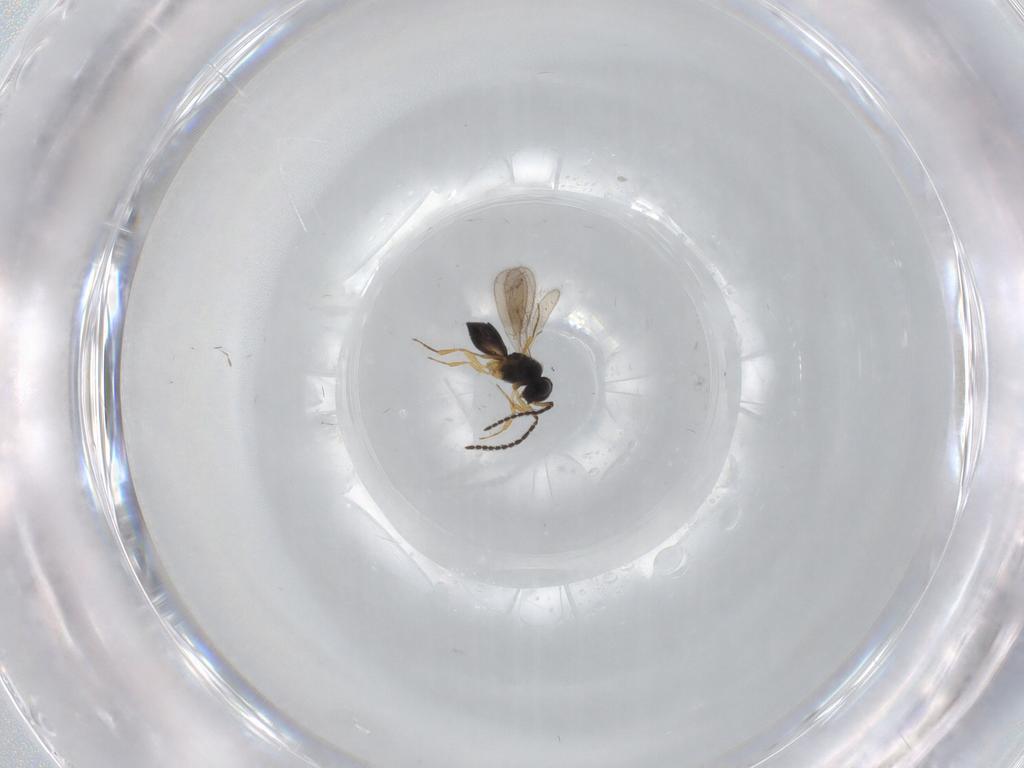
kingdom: Animalia
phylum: Arthropoda
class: Insecta
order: Hymenoptera
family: Scelionidae
